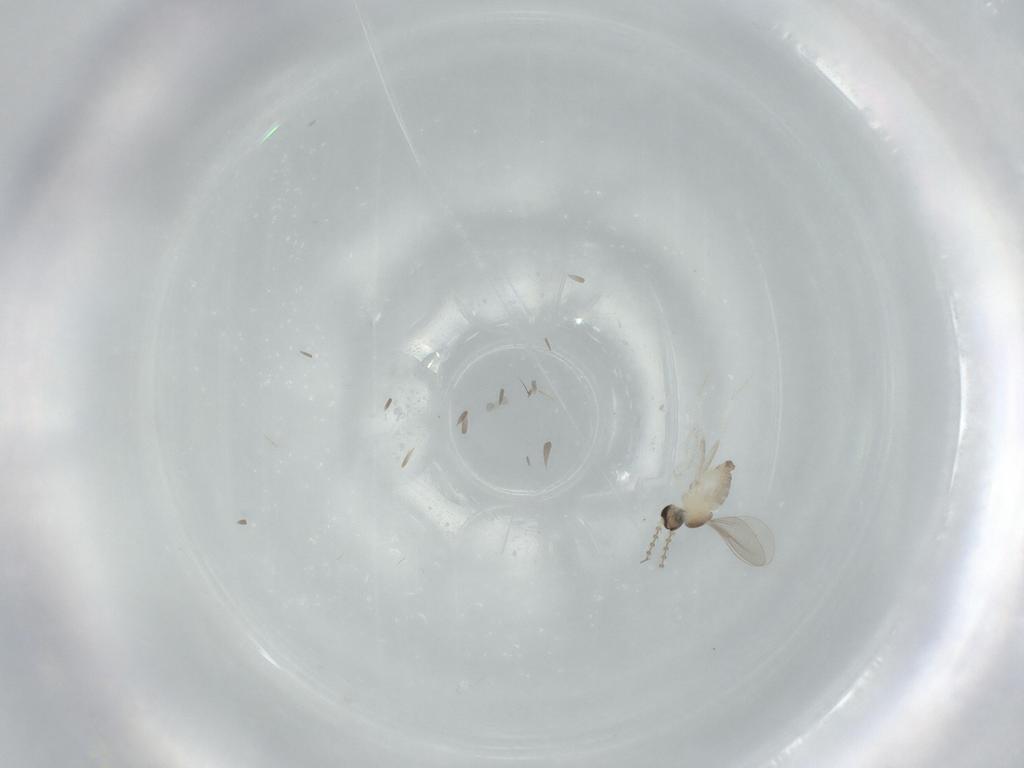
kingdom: Animalia
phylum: Arthropoda
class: Insecta
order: Diptera
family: Cecidomyiidae
